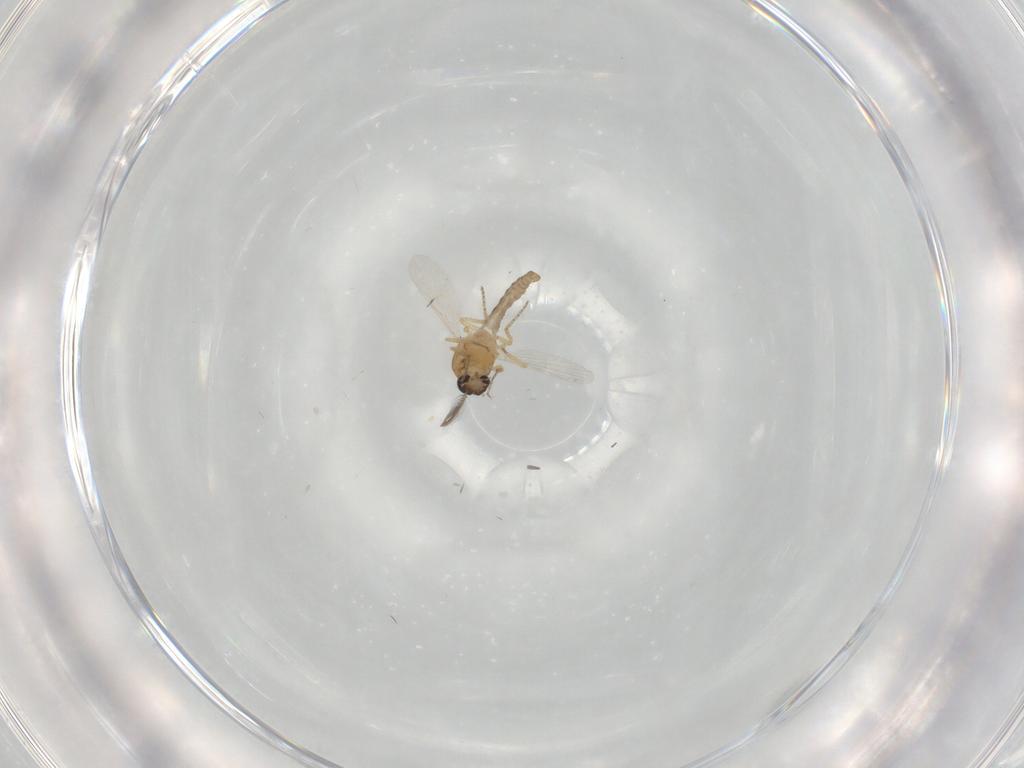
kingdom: Animalia
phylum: Arthropoda
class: Insecta
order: Diptera
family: Ceratopogonidae
